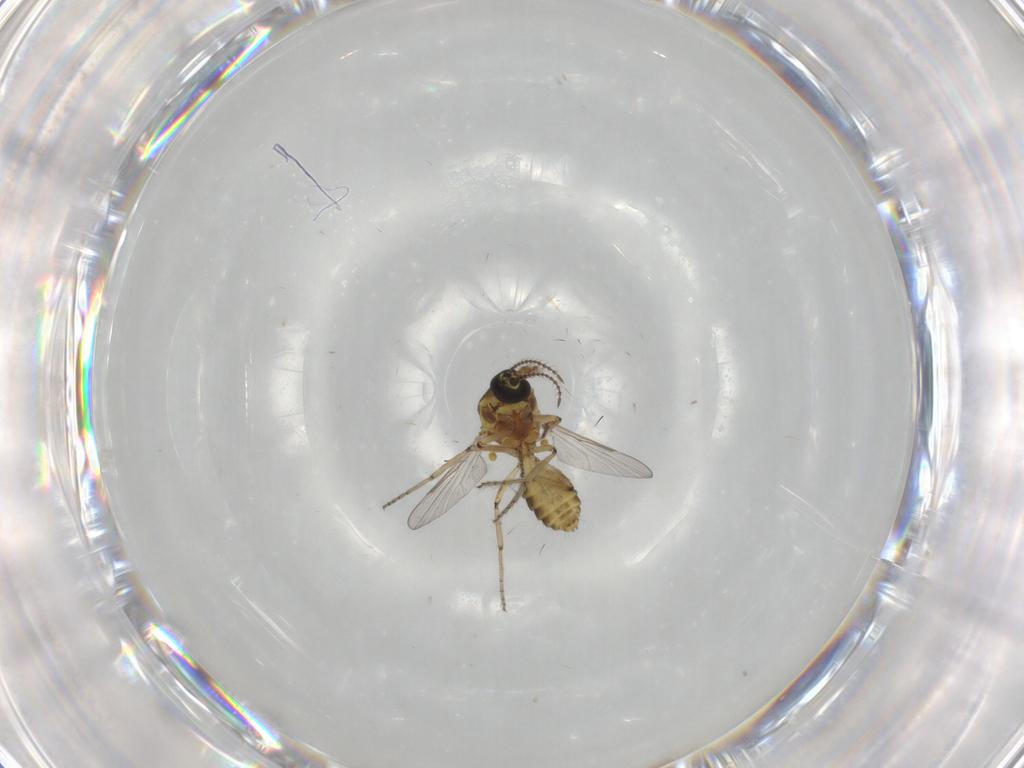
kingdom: Animalia
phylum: Arthropoda
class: Insecta
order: Diptera
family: Ceratopogonidae
